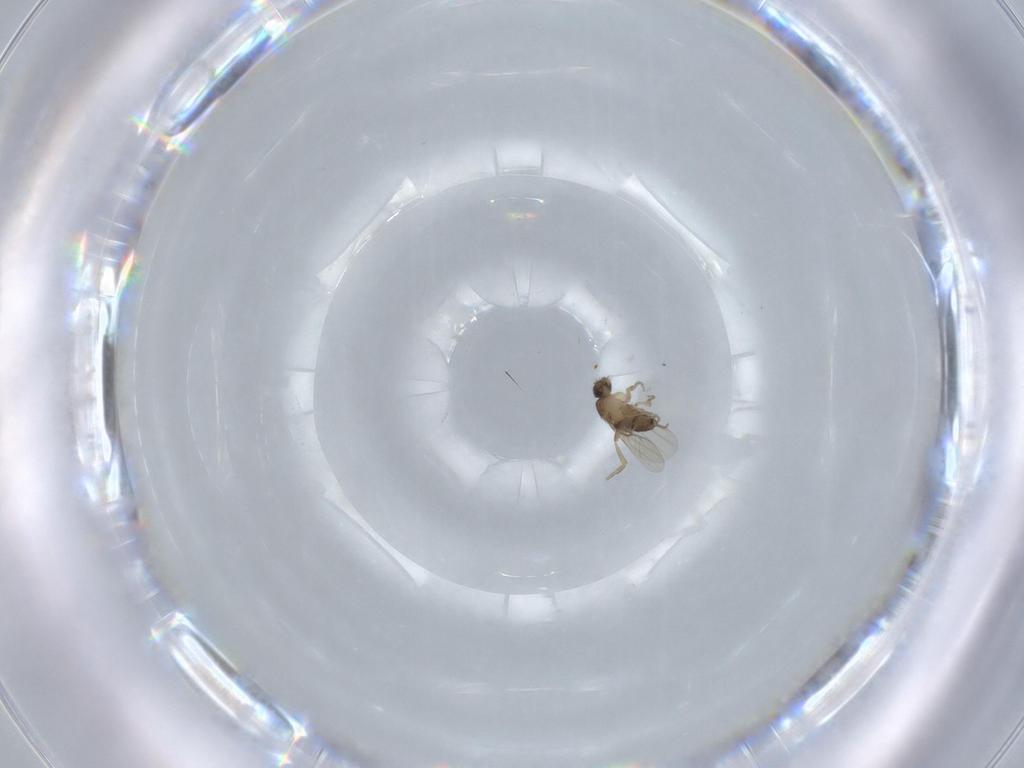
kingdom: Animalia
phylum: Arthropoda
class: Insecta
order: Diptera
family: Phoridae
